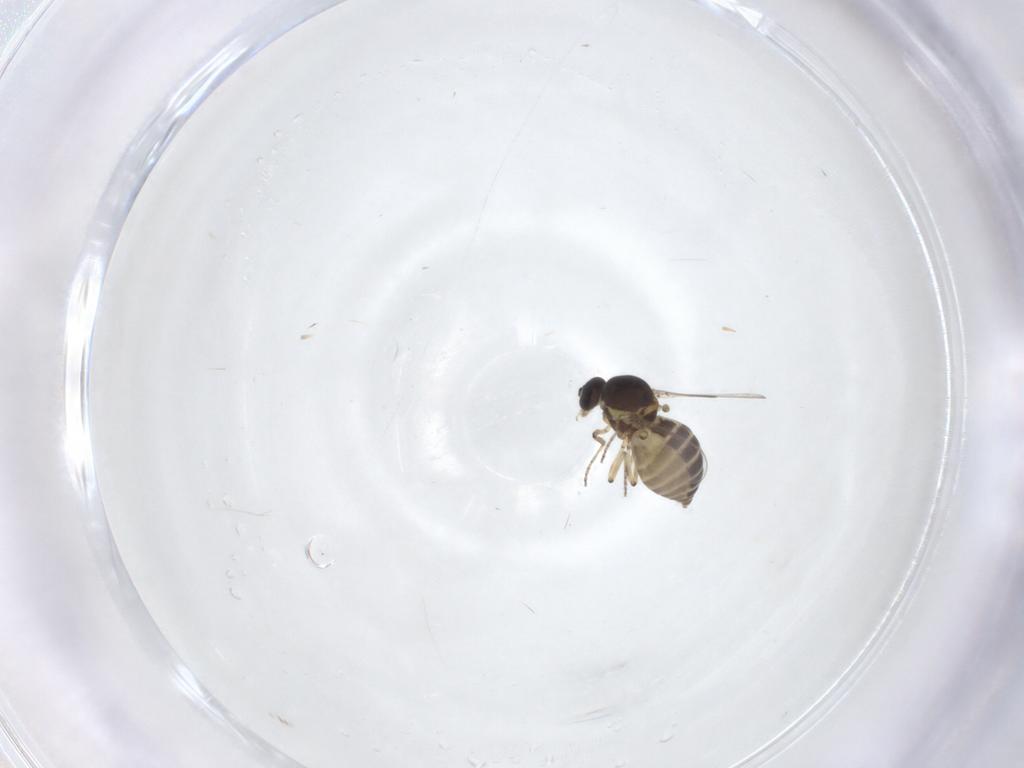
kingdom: Animalia
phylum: Arthropoda
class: Insecta
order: Diptera
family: Ceratopogonidae
